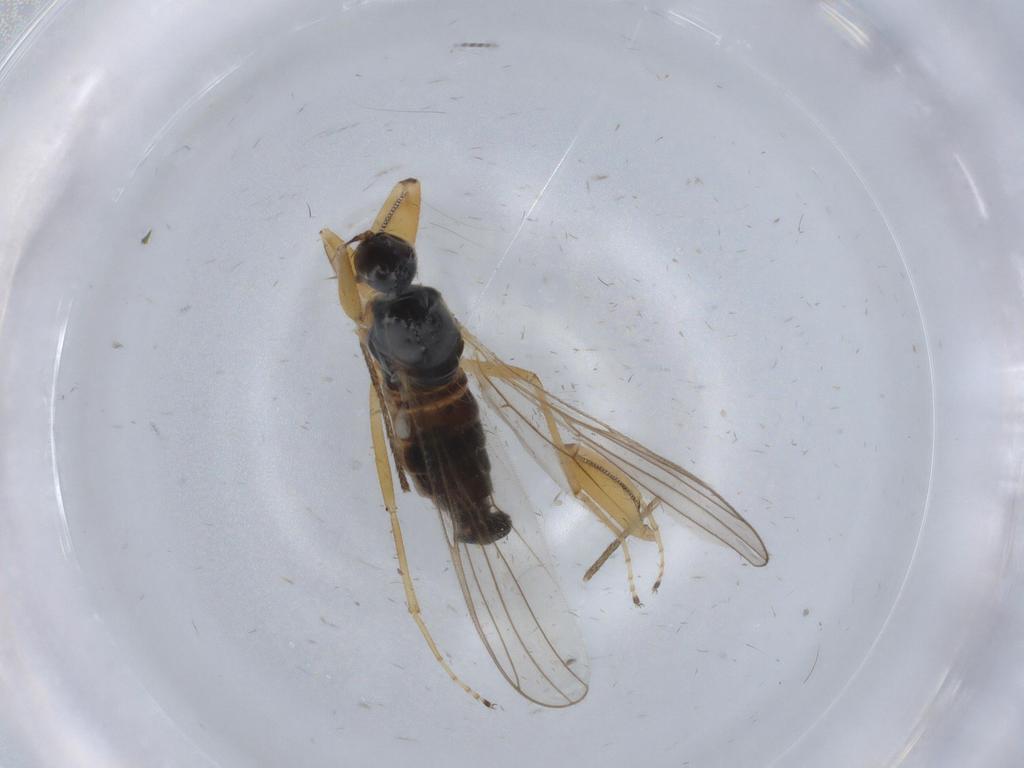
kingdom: Animalia
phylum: Arthropoda
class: Insecta
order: Diptera
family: Hybotidae
